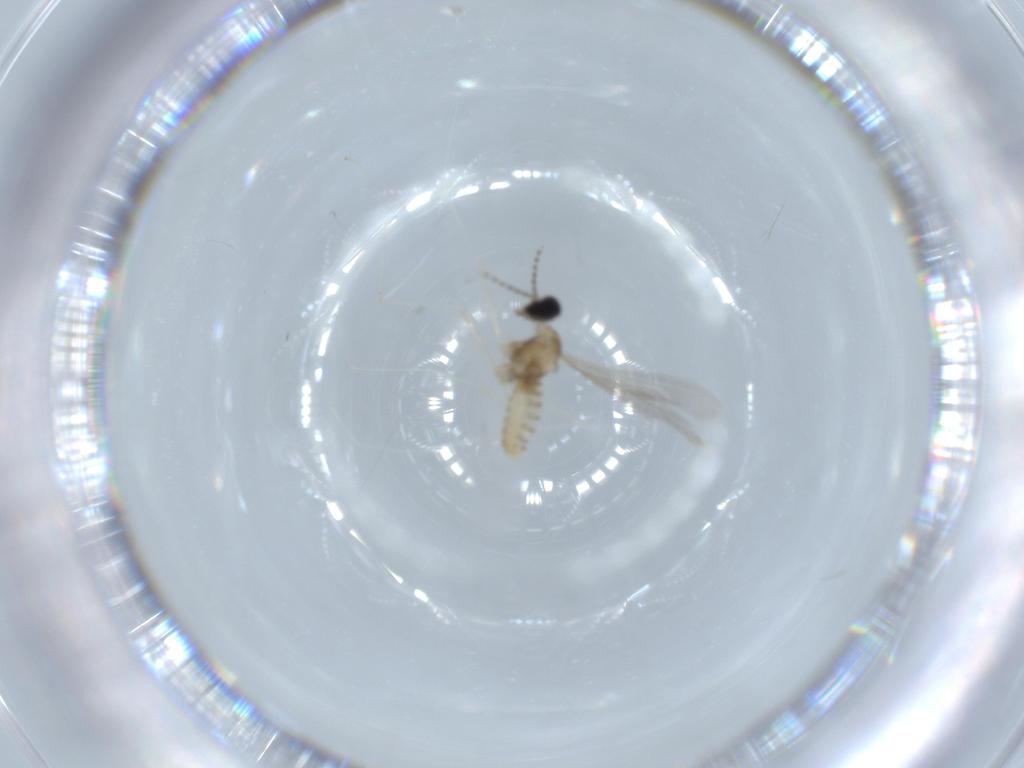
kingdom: Animalia
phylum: Arthropoda
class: Insecta
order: Diptera
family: Cecidomyiidae
